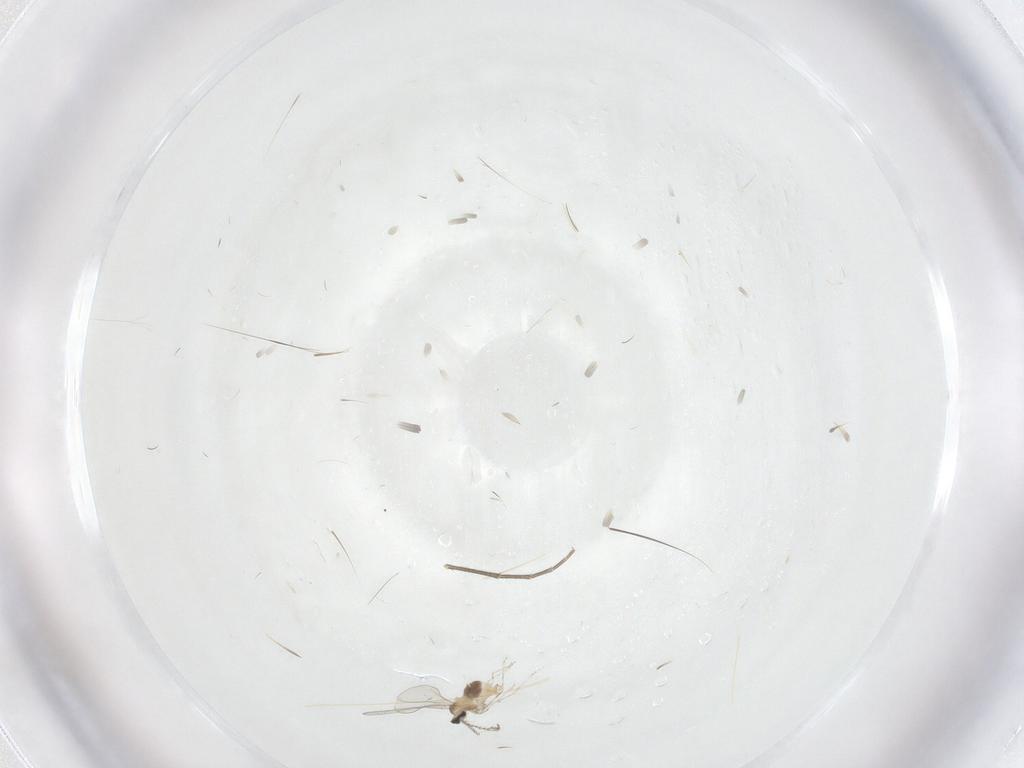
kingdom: Animalia
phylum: Arthropoda
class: Insecta
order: Diptera
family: Cecidomyiidae
